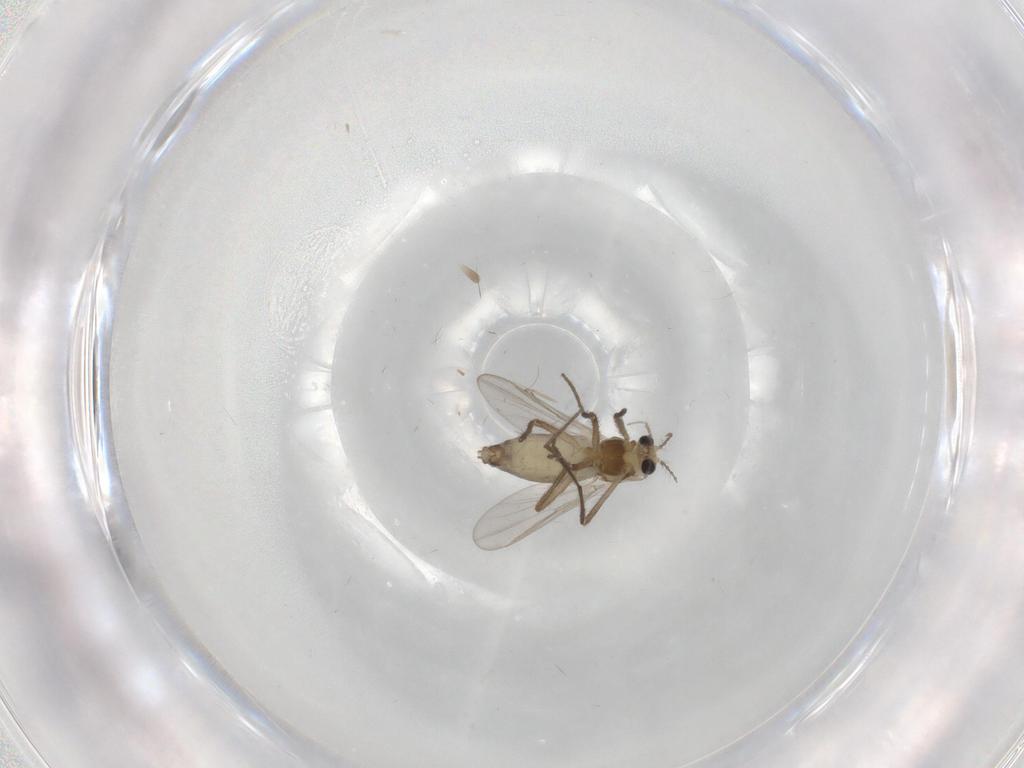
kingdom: Animalia
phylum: Arthropoda
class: Insecta
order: Diptera
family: Chironomidae
